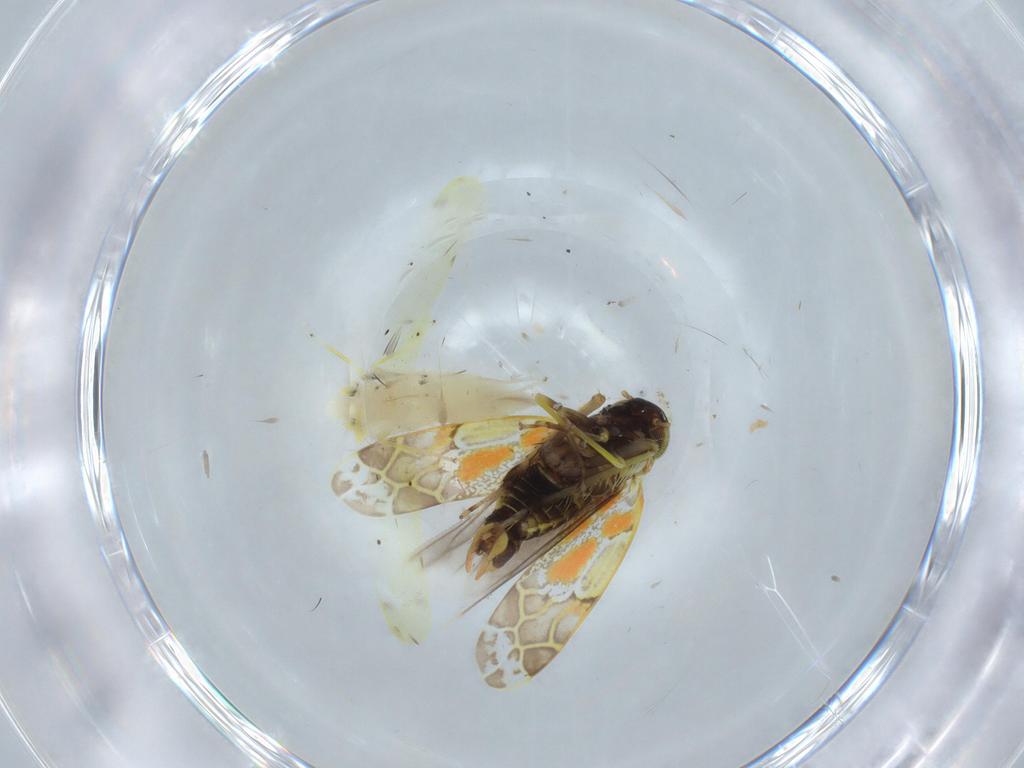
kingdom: Animalia
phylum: Arthropoda
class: Insecta
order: Hemiptera
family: Cicadellidae
